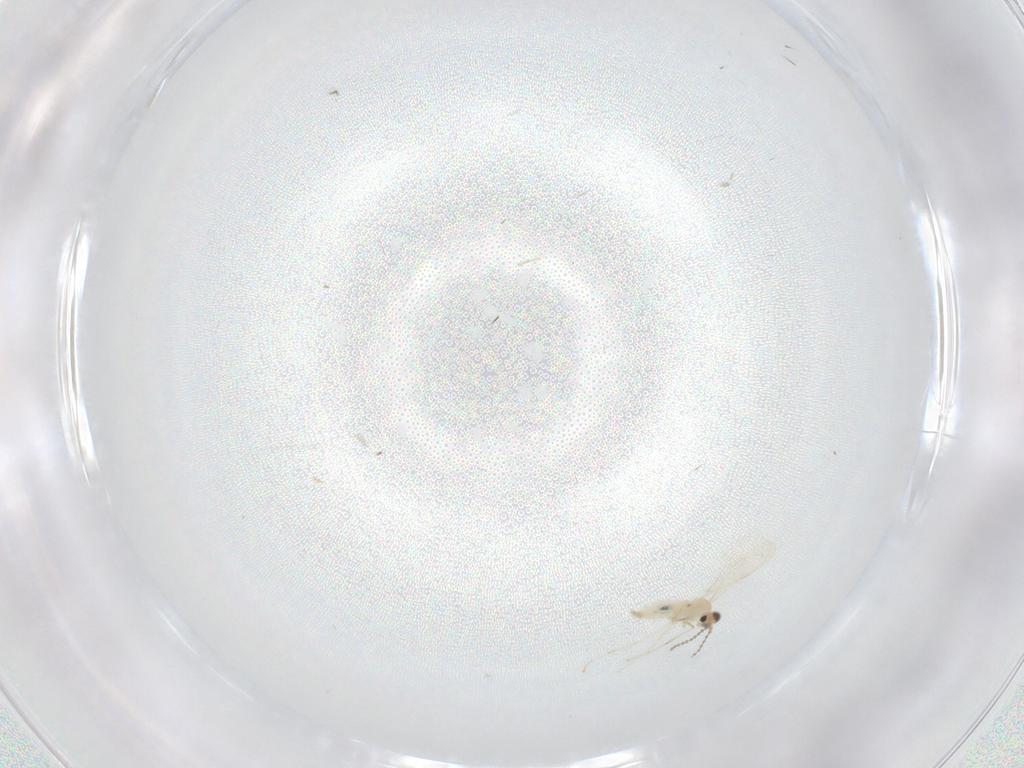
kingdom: Animalia
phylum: Arthropoda
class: Insecta
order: Diptera
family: Cecidomyiidae
